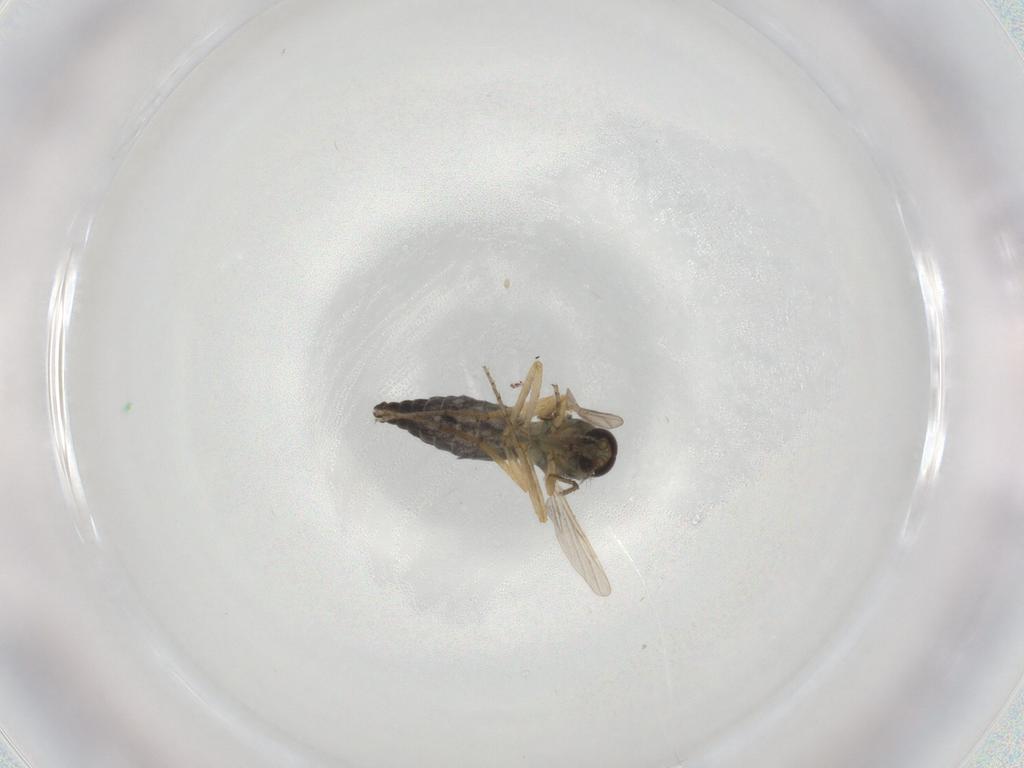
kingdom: Animalia
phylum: Arthropoda
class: Insecta
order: Diptera
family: Ceratopogonidae
